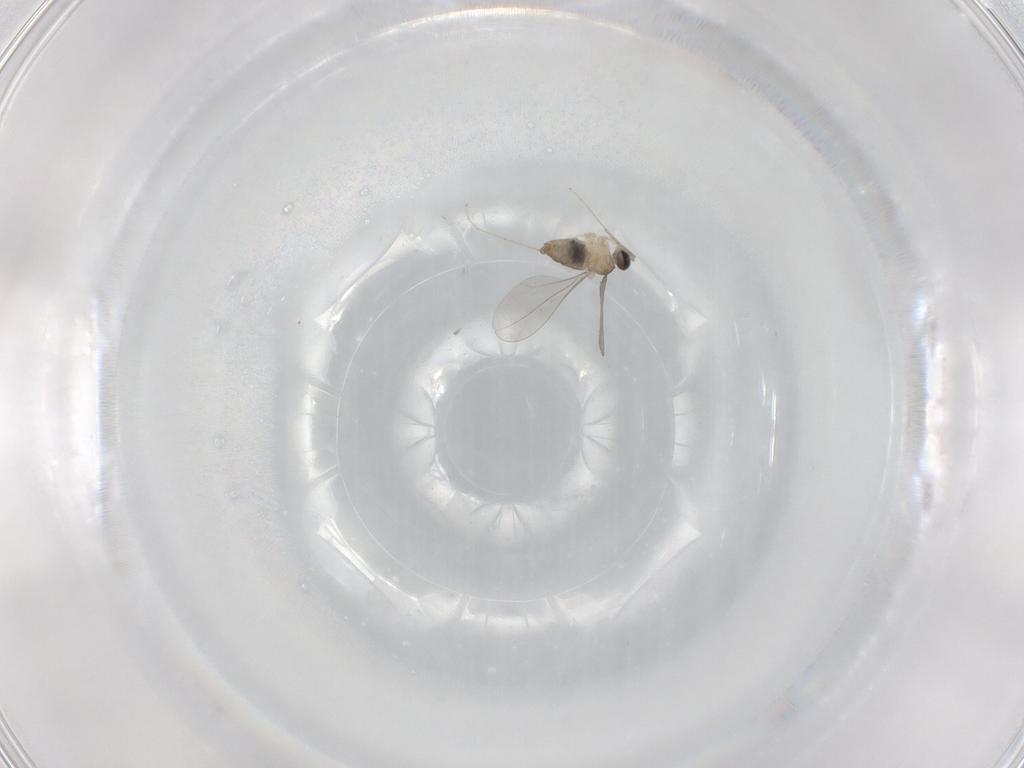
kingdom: Animalia
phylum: Arthropoda
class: Insecta
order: Diptera
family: Cecidomyiidae
